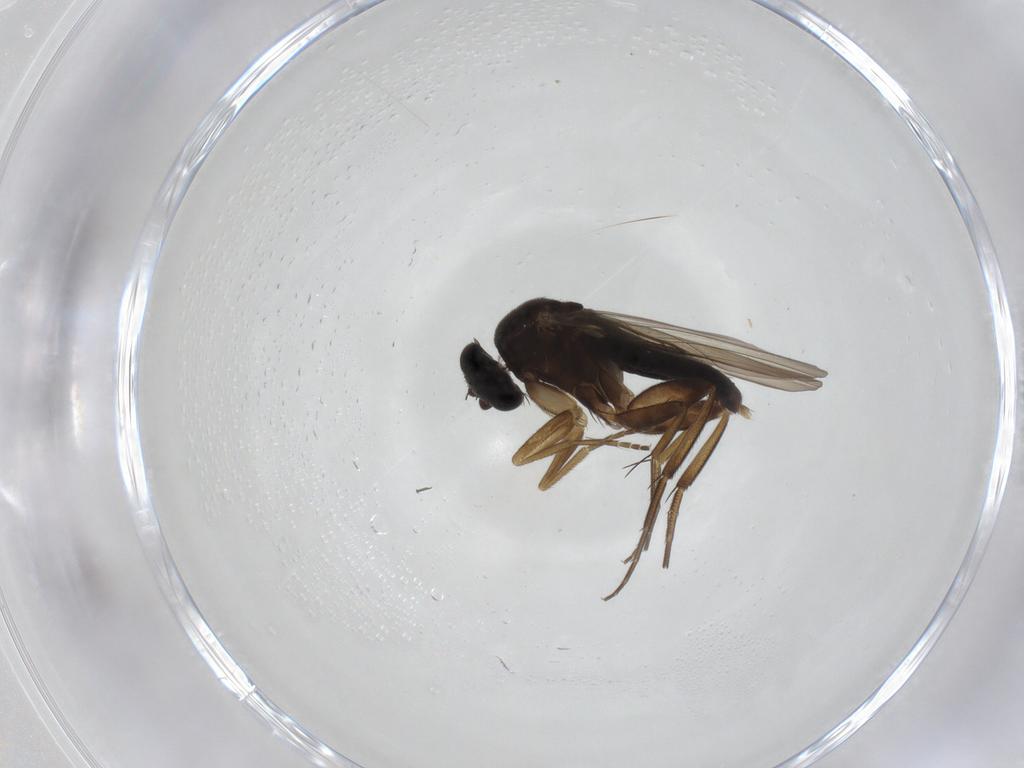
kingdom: Animalia
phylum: Arthropoda
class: Insecta
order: Diptera
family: Phoridae
